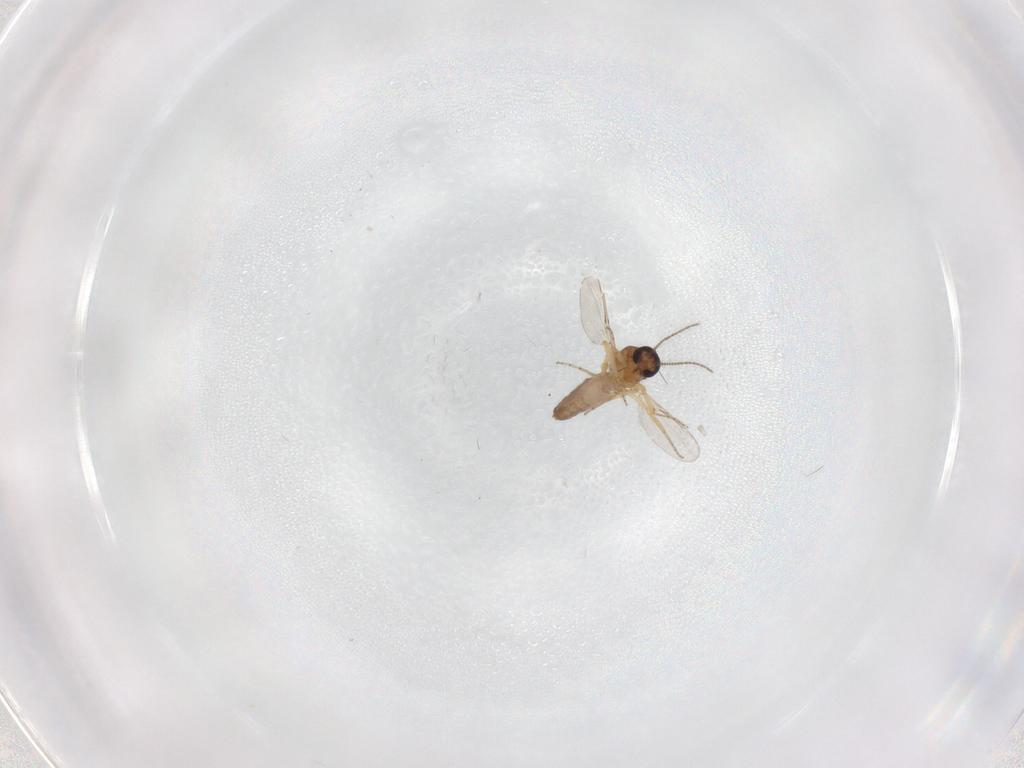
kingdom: Animalia
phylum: Arthropoda
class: Insecta
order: Diptera
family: Ceratopogonidae
